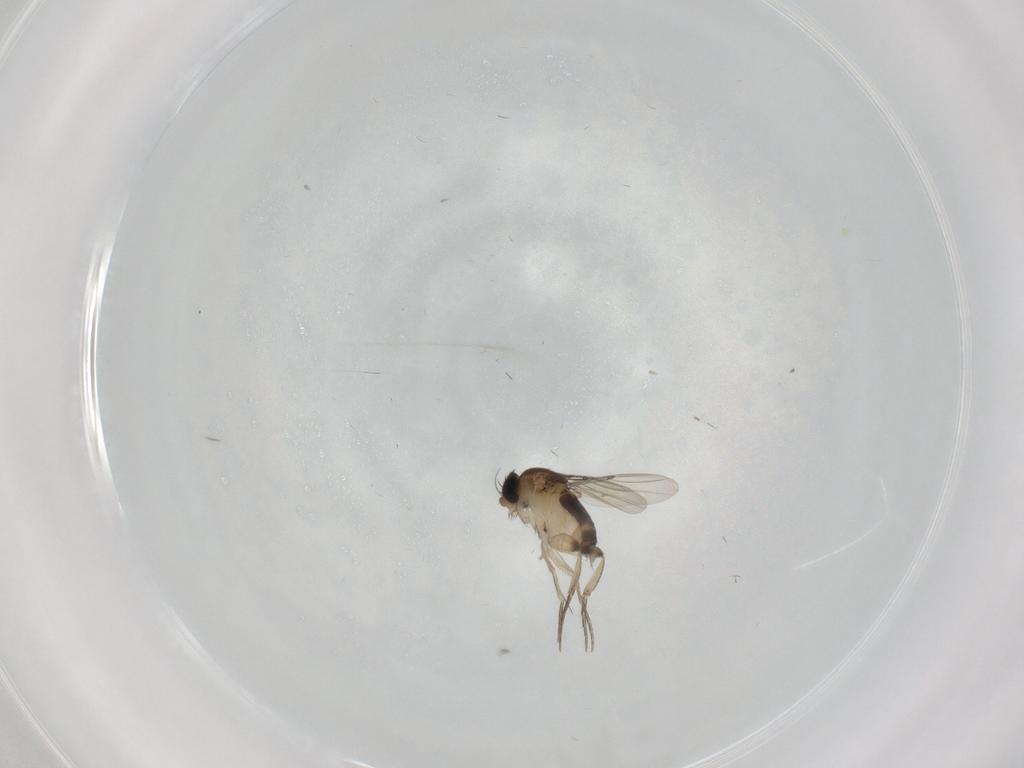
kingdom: Animalia
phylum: Arthropoda
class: Insecta
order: Diptera
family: Phoridae
